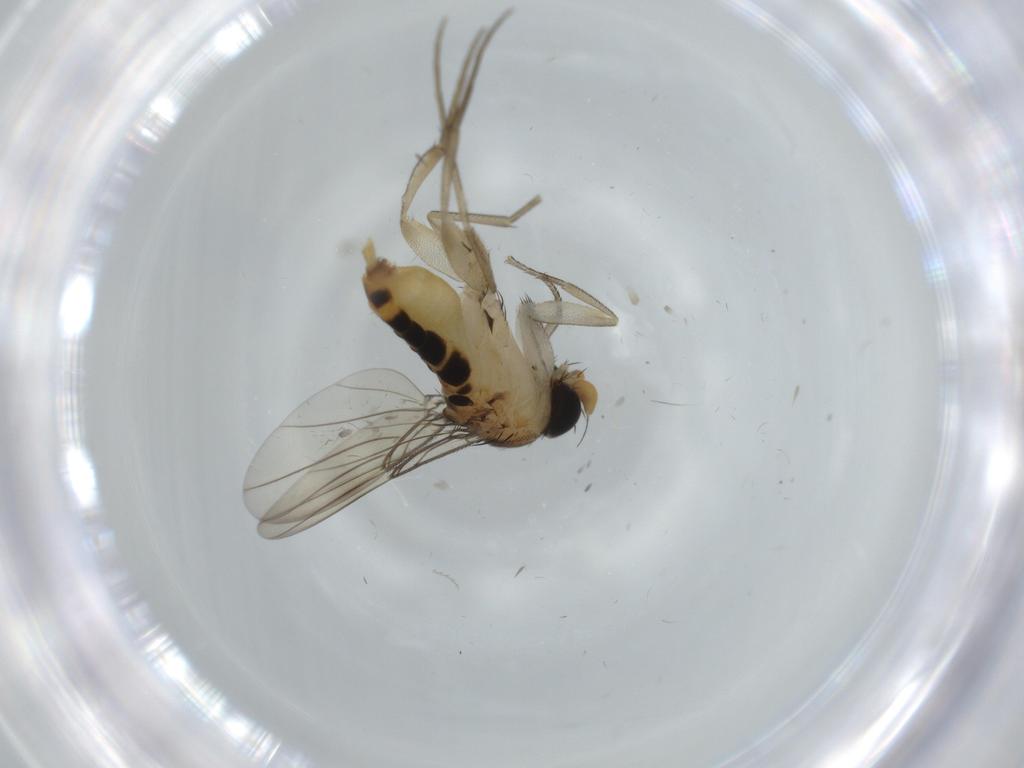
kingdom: Animalia
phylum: Arthropoda
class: Insecta
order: Diptera
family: Phoridae
